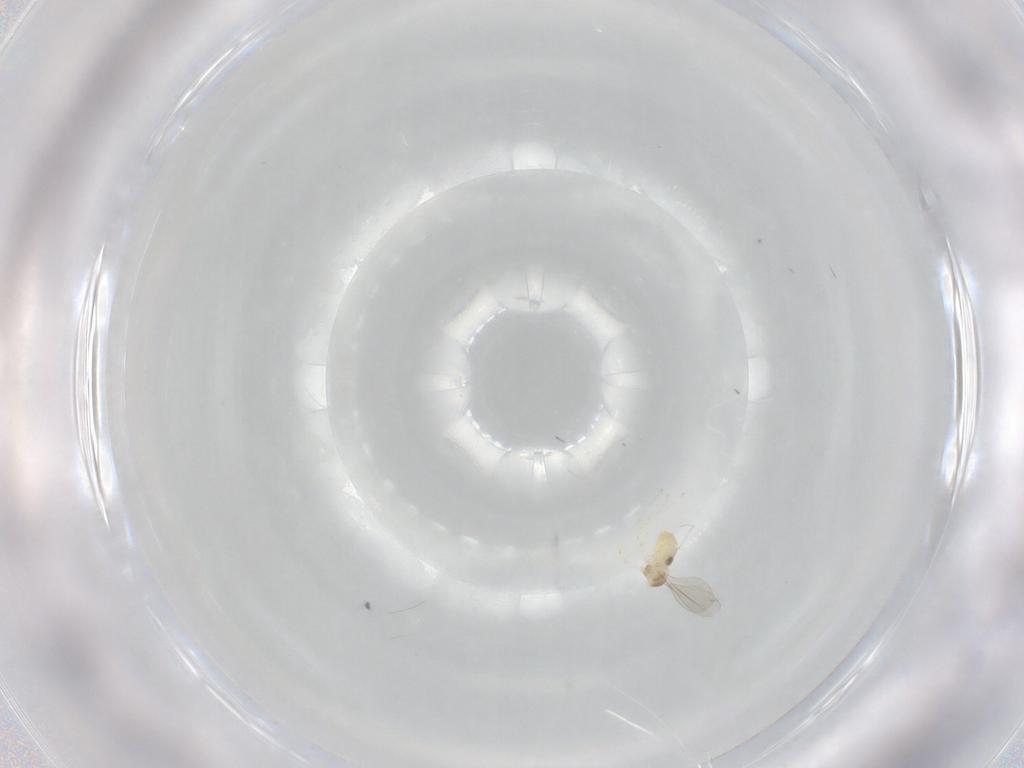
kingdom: Animalia
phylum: Arthropoda
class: Insecta
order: Diptera
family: Cecidomyiidae
